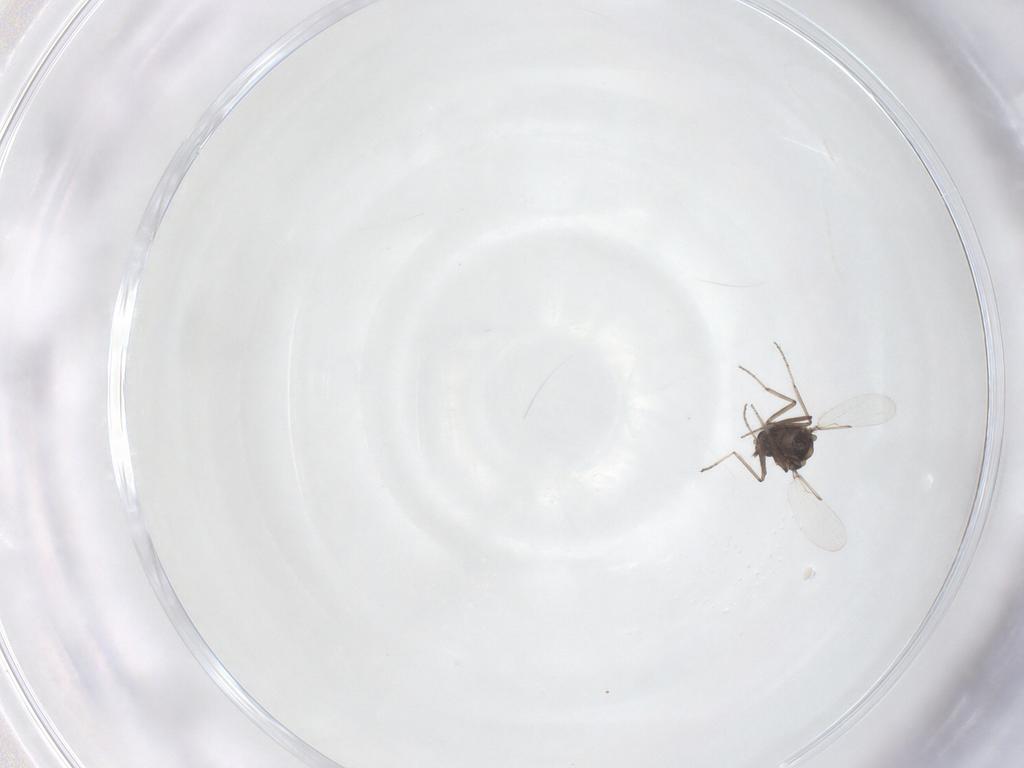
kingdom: Animalia
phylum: Arthropoda
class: Insecta
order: Diptera
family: Ceratopogonidae
